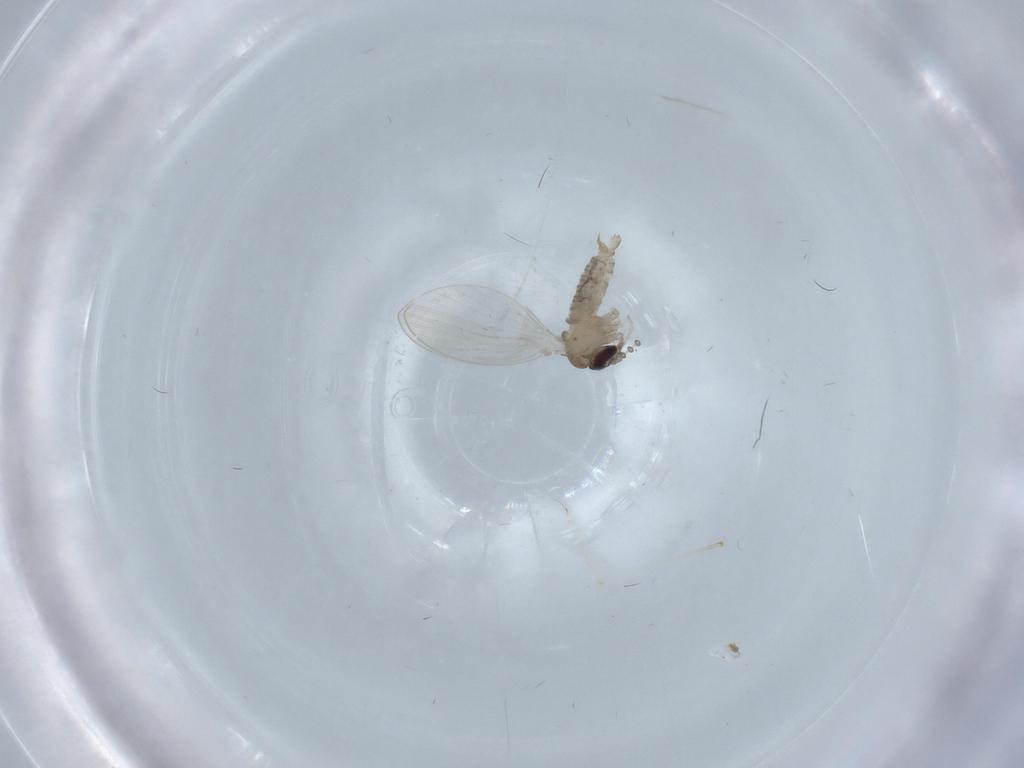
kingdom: Animalia
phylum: Arthropoda
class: Insecta
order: Diptera
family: Psychodidae
